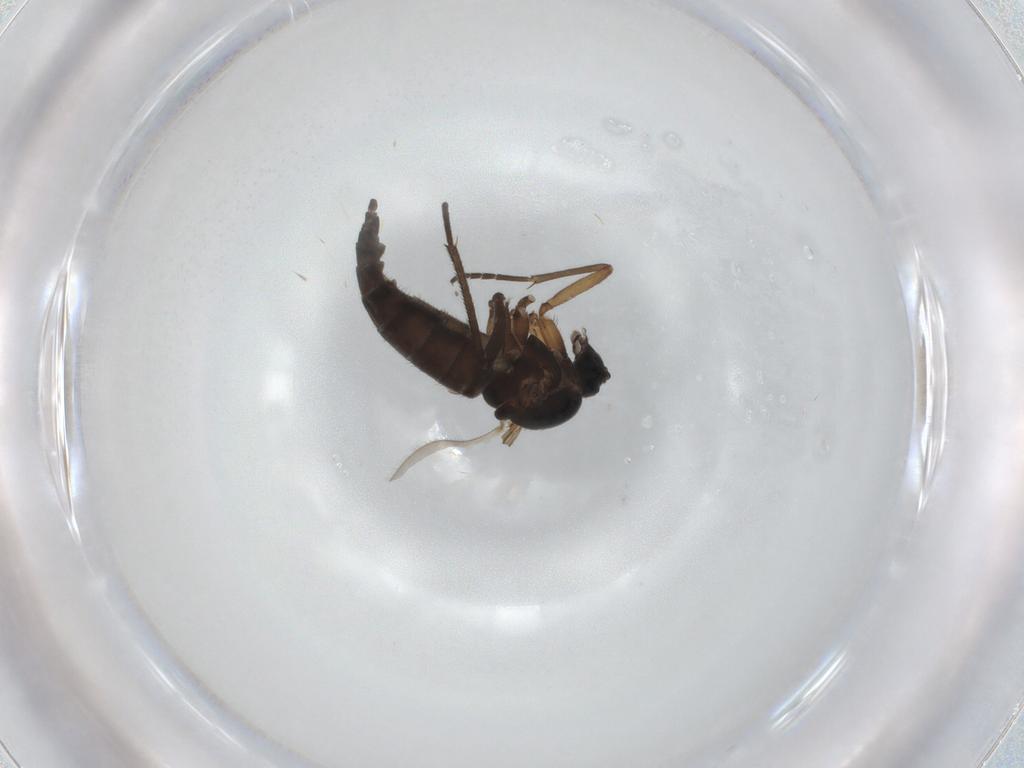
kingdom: Animalia
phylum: Arthropoda
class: Insecta
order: Diptera
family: Sciaridae
